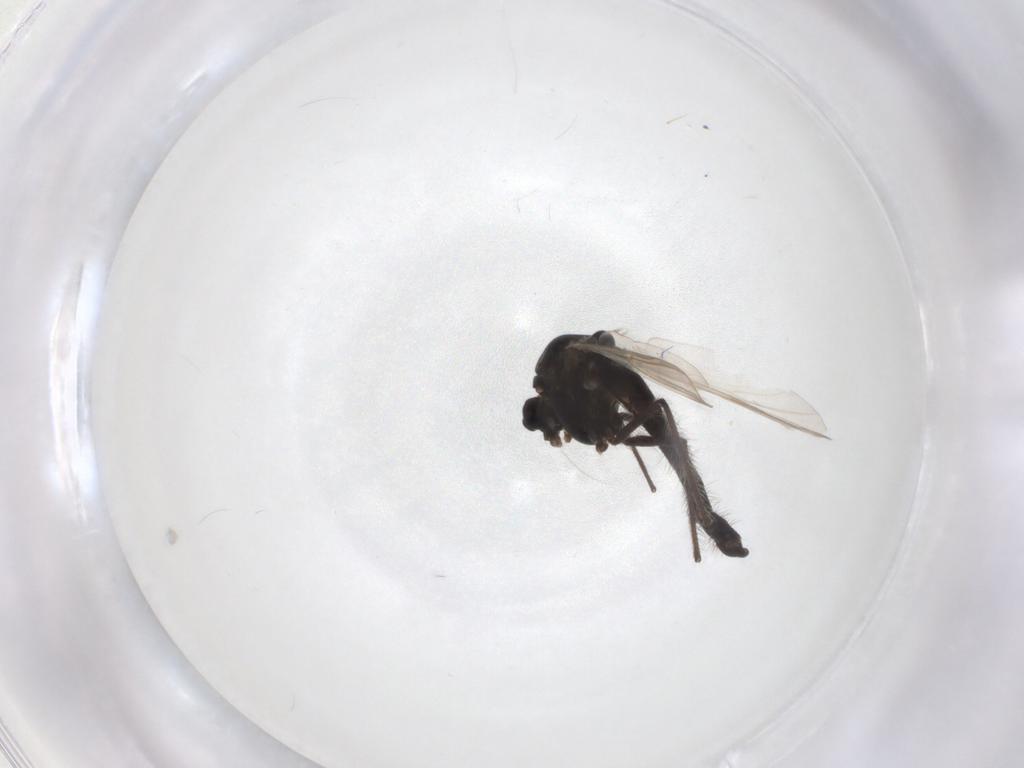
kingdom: Animalia
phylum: Arthropoda
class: Insecta
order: Diptera
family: Chironomidae
